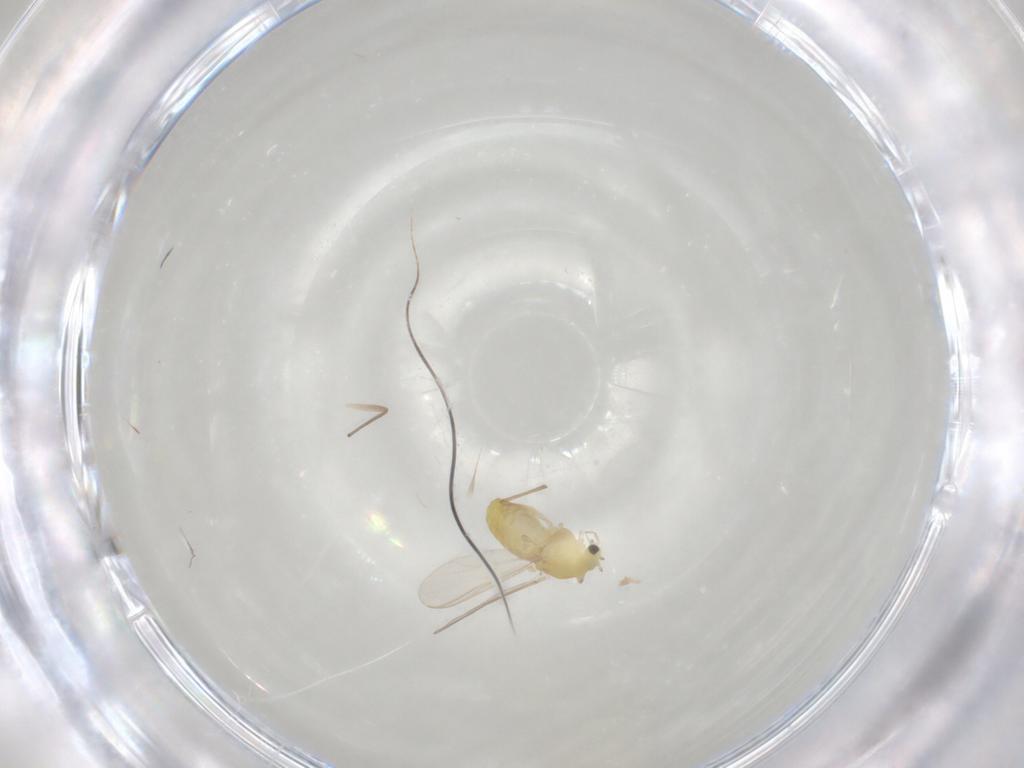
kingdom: Animalia
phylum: Arthropoda
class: Insecta
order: Diptera
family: Chironomidae
